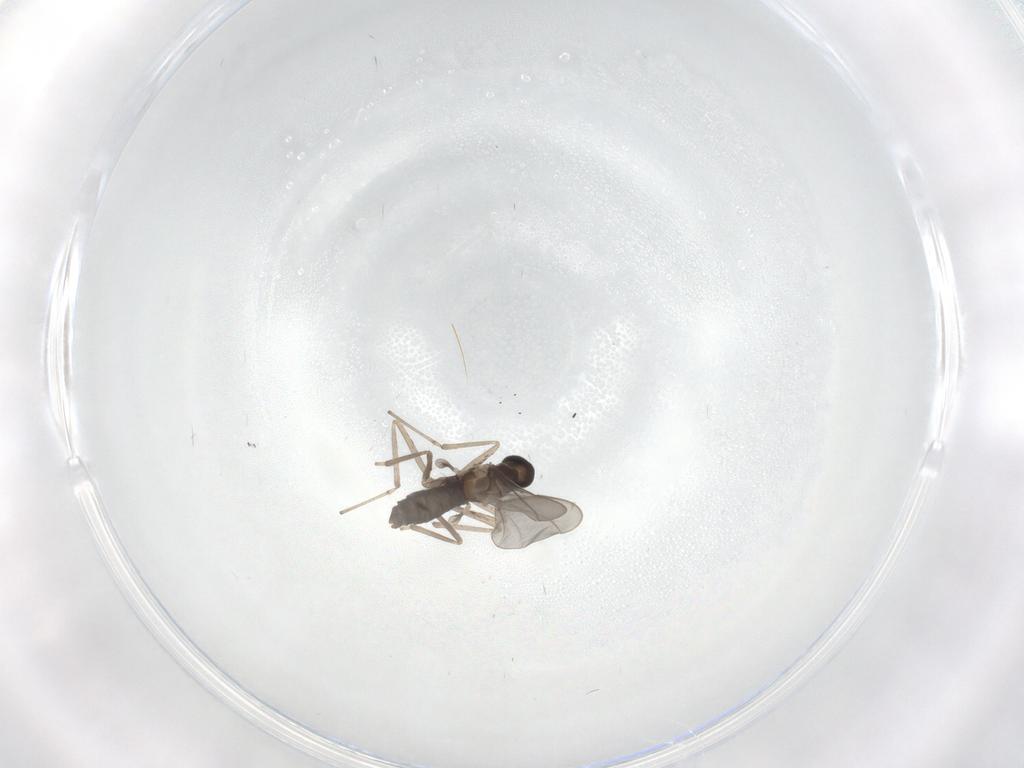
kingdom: Animalia
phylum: Arthropoda
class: Insecta
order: Diptera
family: Cecidomyiidae
